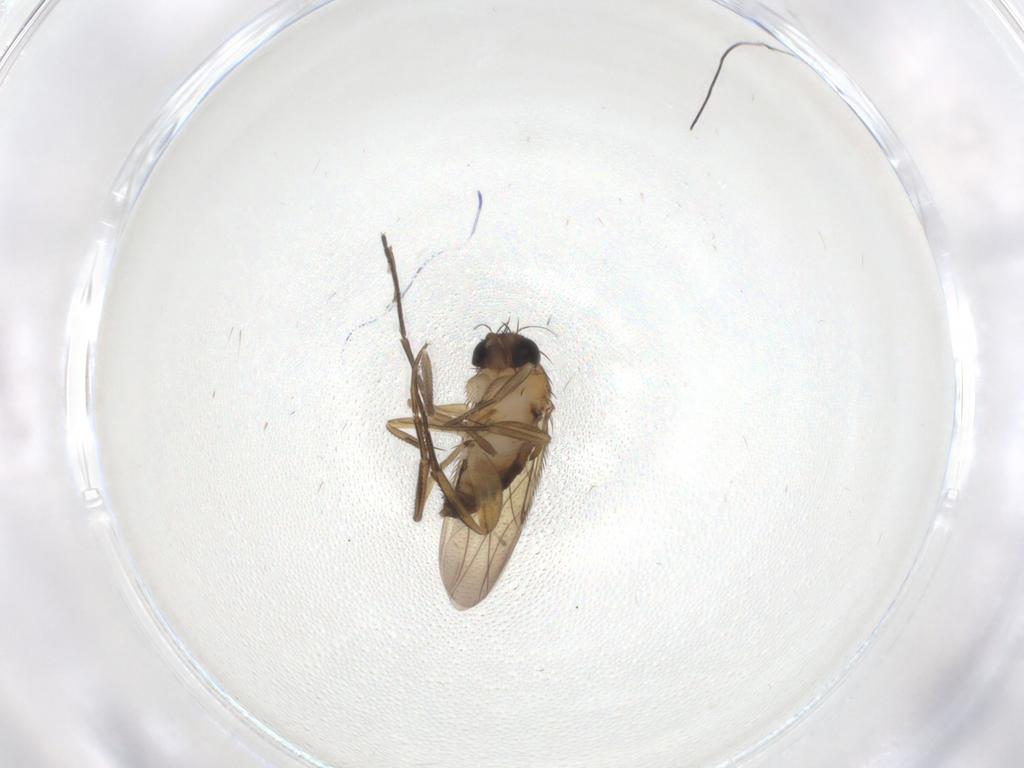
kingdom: Animalia
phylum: Arthropoda
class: Insecta
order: Diptera
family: Phoridae
